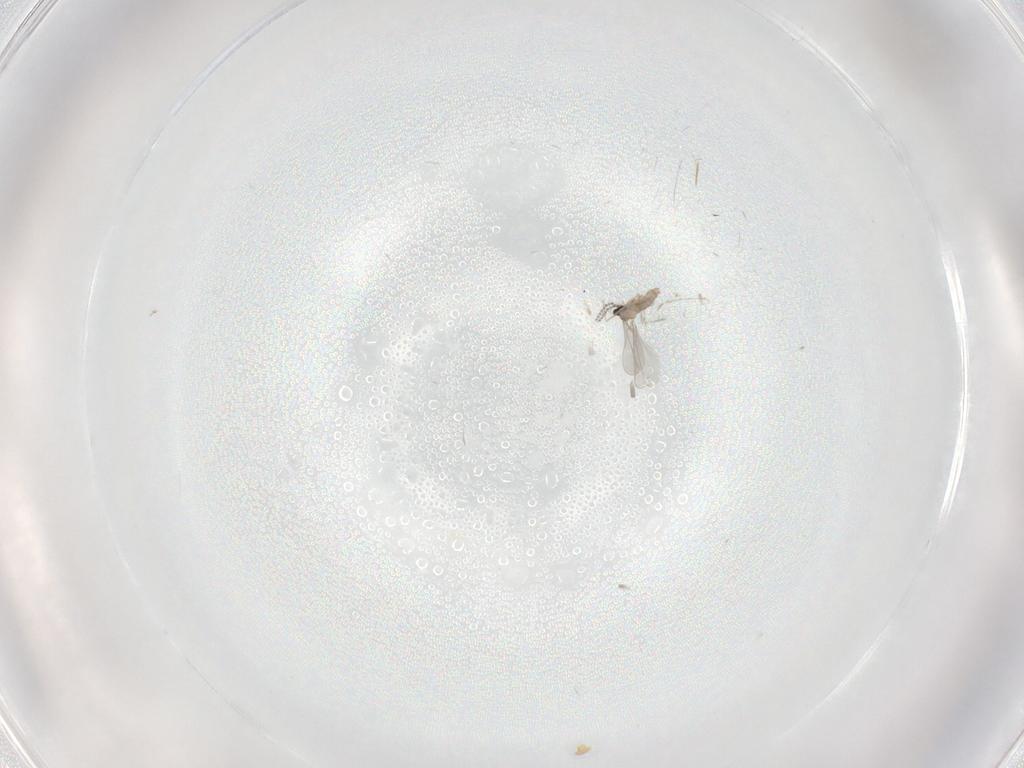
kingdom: Animalia
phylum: Arthropoda
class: Insecta
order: Diptera
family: Cecidomyiidae
